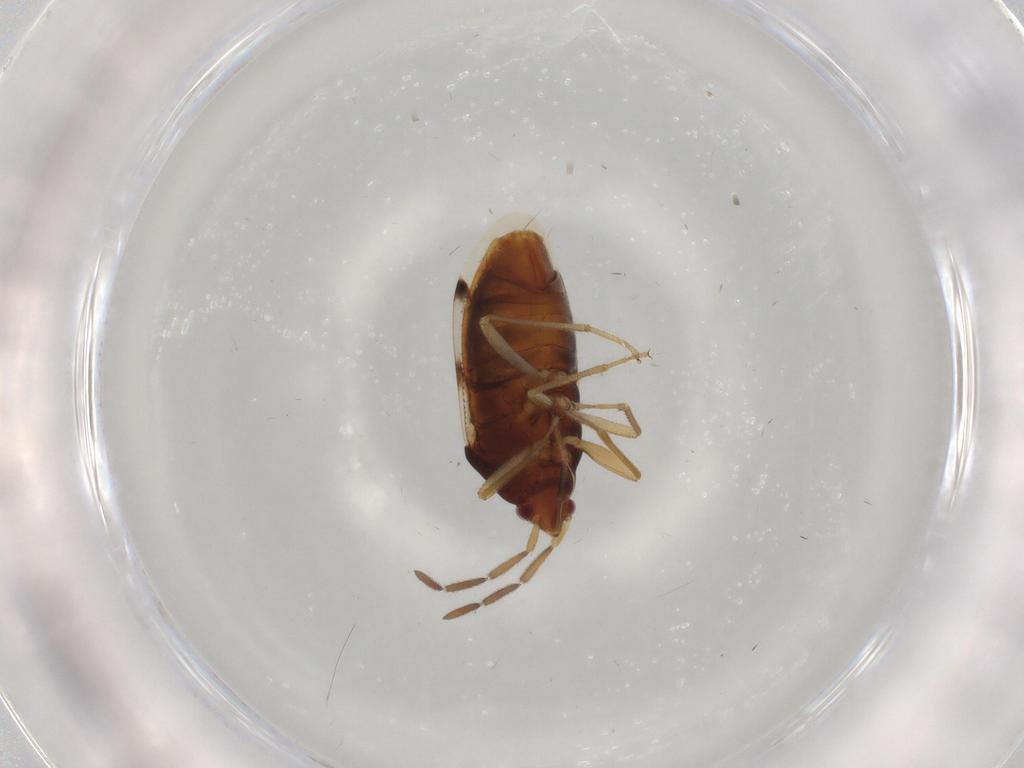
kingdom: Animalia
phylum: Arthropoda
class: Insecta
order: Hemiptera
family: Rhyparochromidae
